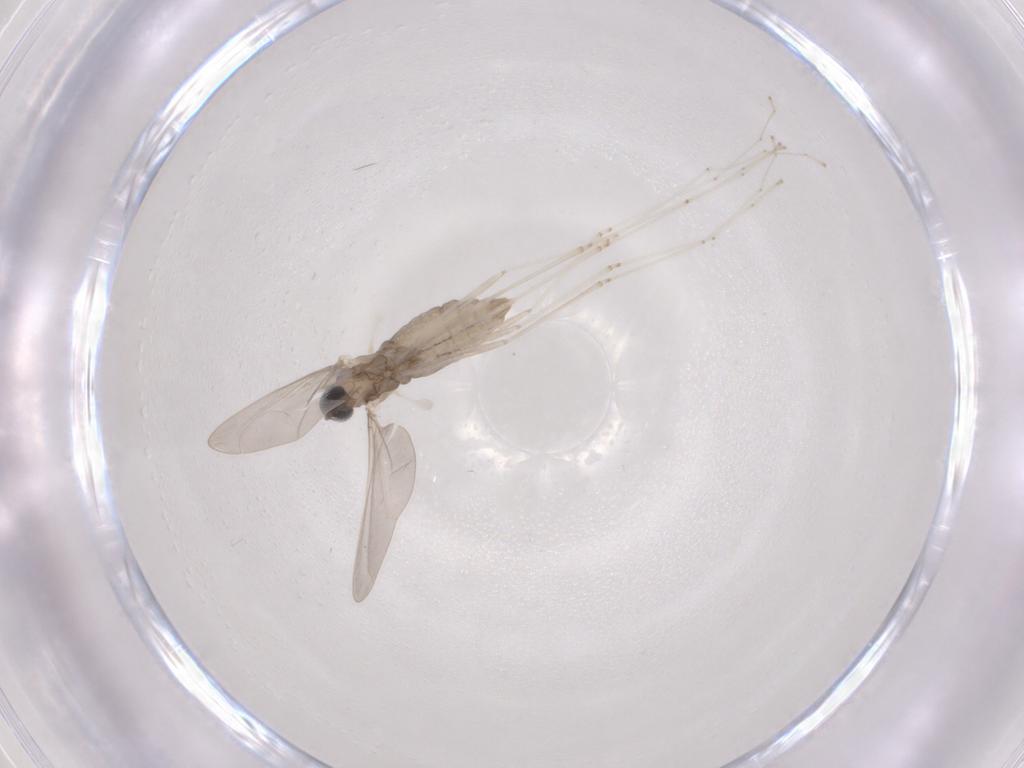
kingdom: Animalia
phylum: Arthropoda
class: Insecta
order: Diptera
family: Cecidomyiidae
